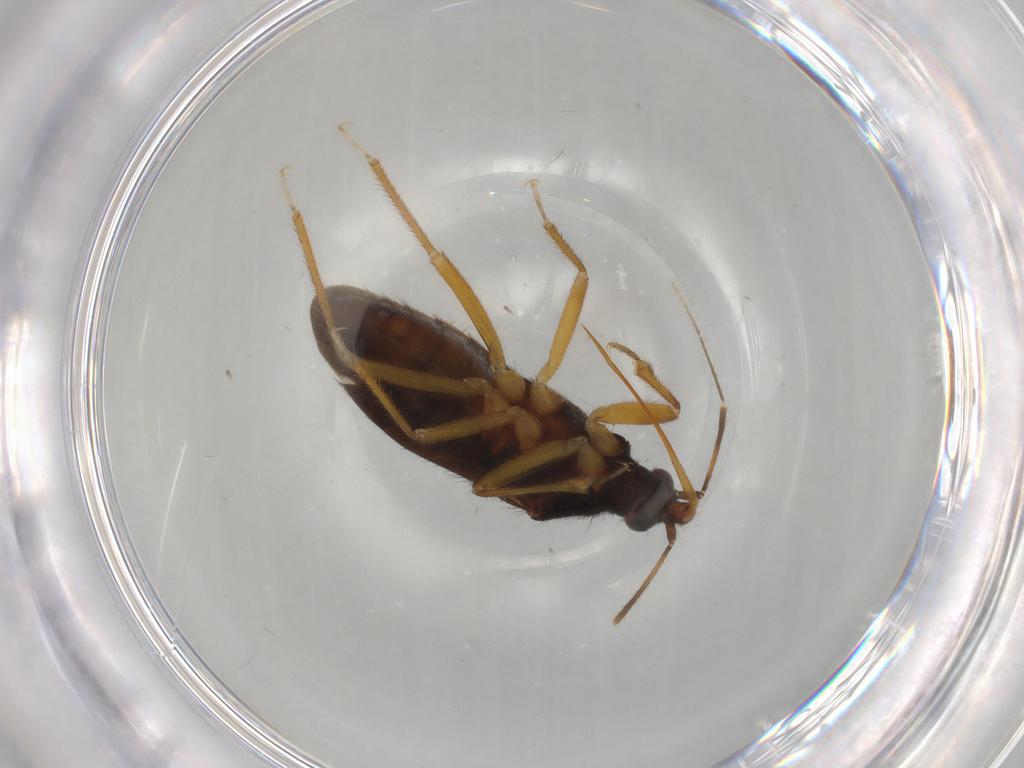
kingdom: Animalia
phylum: Arthropoda
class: Insecta
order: Hemiptera
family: Anthocoridae
